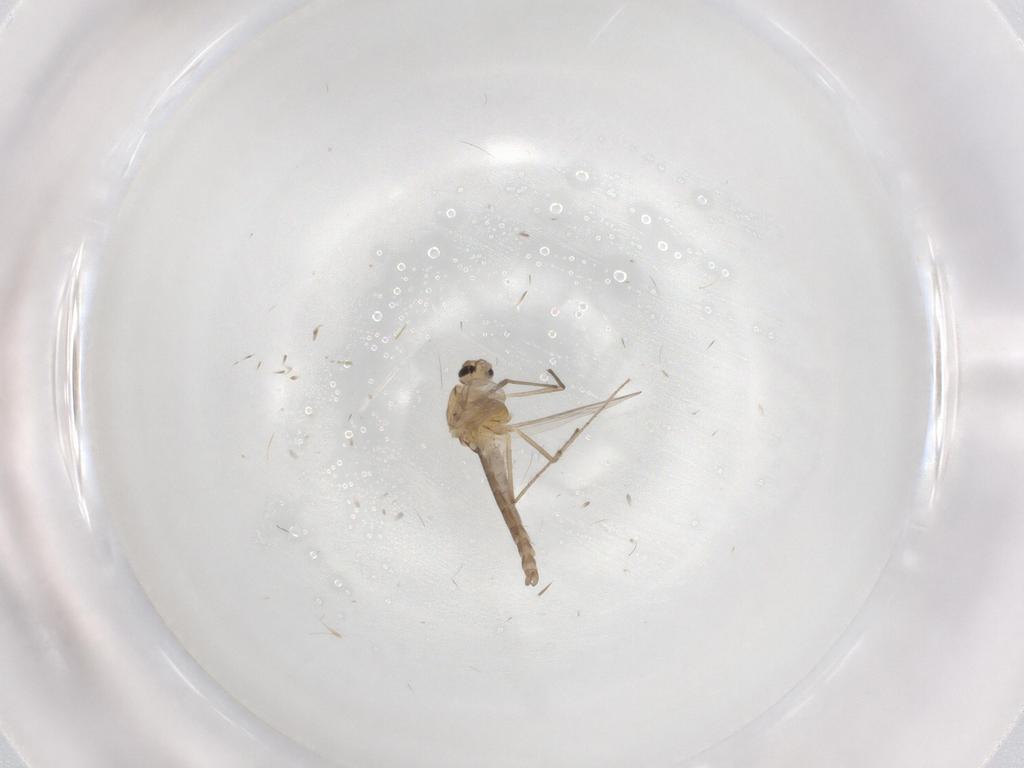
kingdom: Animalia
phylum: Arthropoda
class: Insecta
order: Diptera
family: Chironomidae
